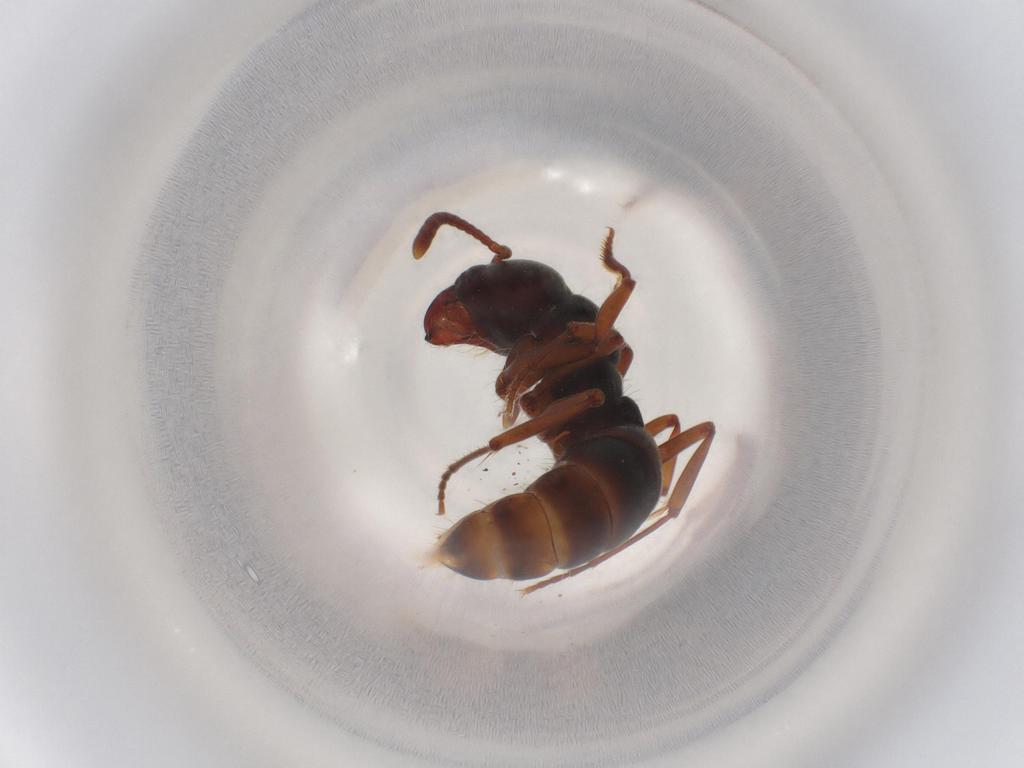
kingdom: Animalia
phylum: Arthropoda
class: Insecta
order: Hymenoptera
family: Formicidae
